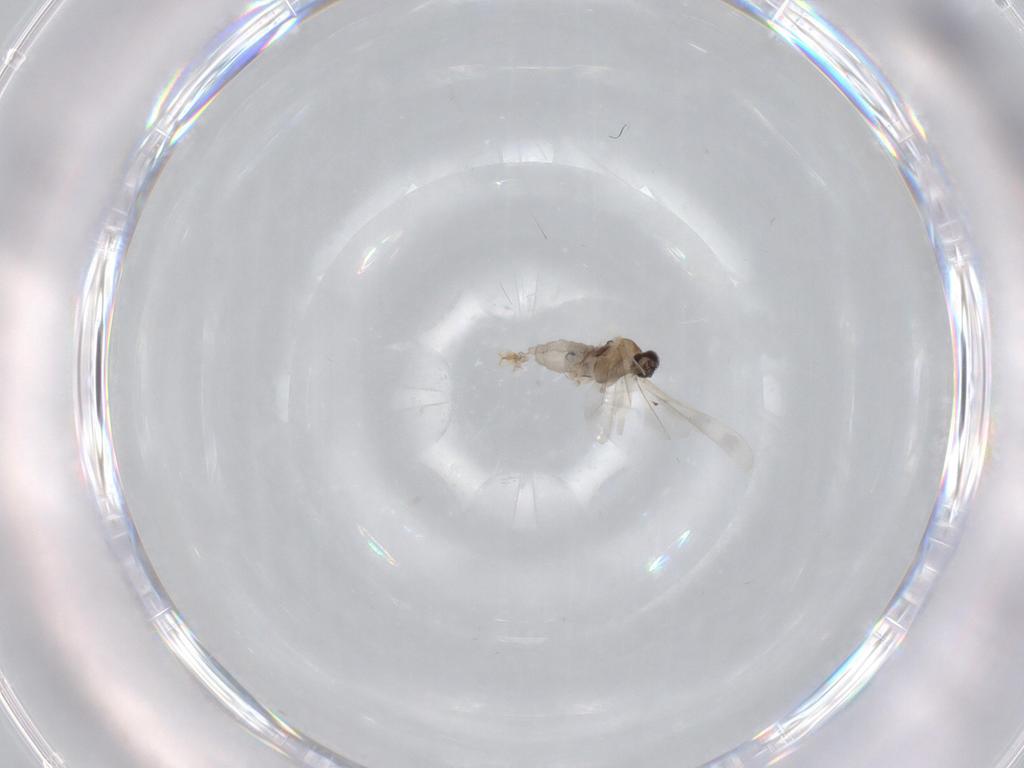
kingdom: Animalia
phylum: Arthropoda
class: Insecta
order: Diptera
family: Cecidomyiidae
